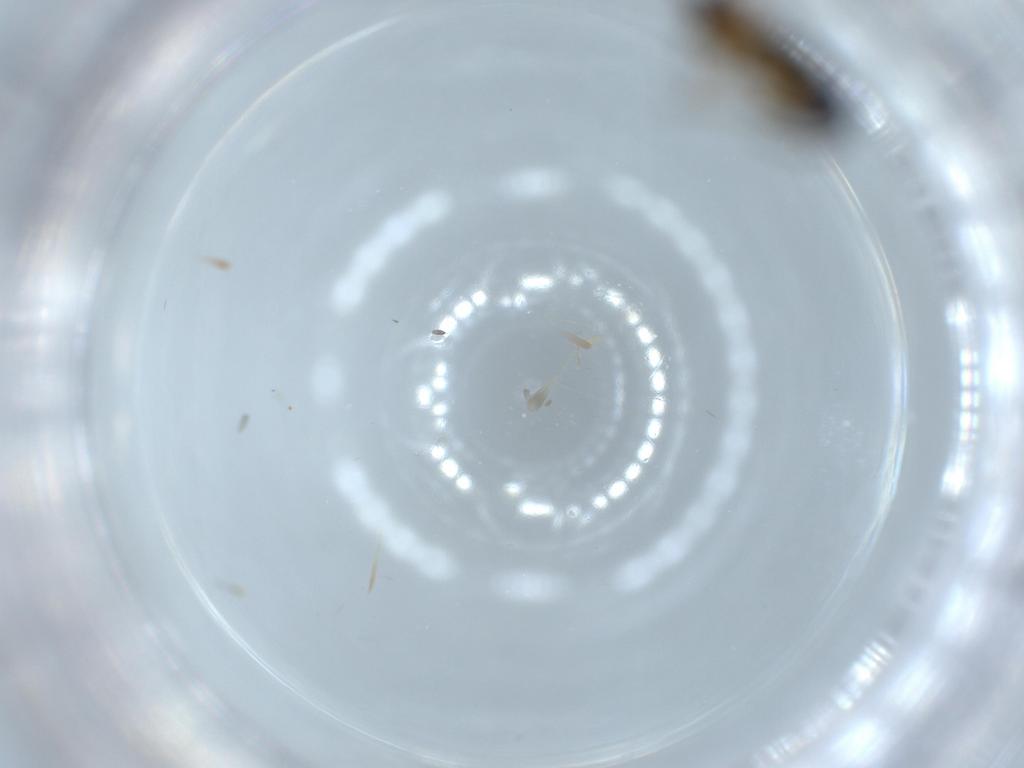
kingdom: Animalia
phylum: Arthropoda
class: Insecta
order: Hymenoptera
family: Encyrtidae
